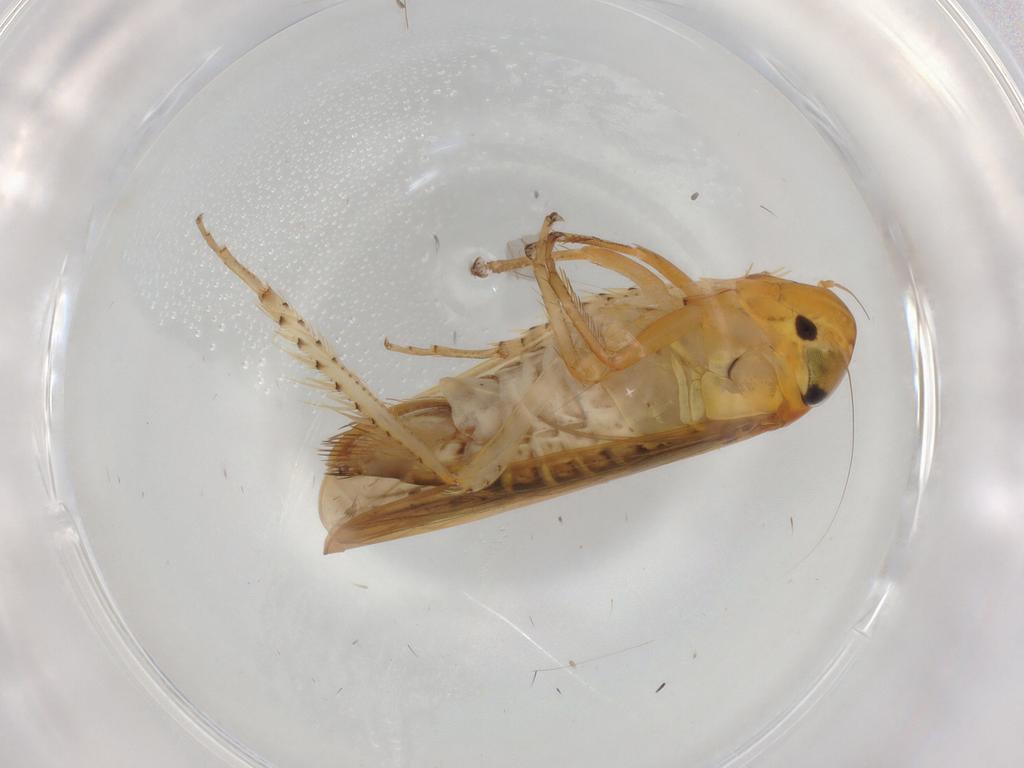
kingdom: Animalia
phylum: Arthropoda
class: Insecta
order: Hemiptera
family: Cicadellidae
